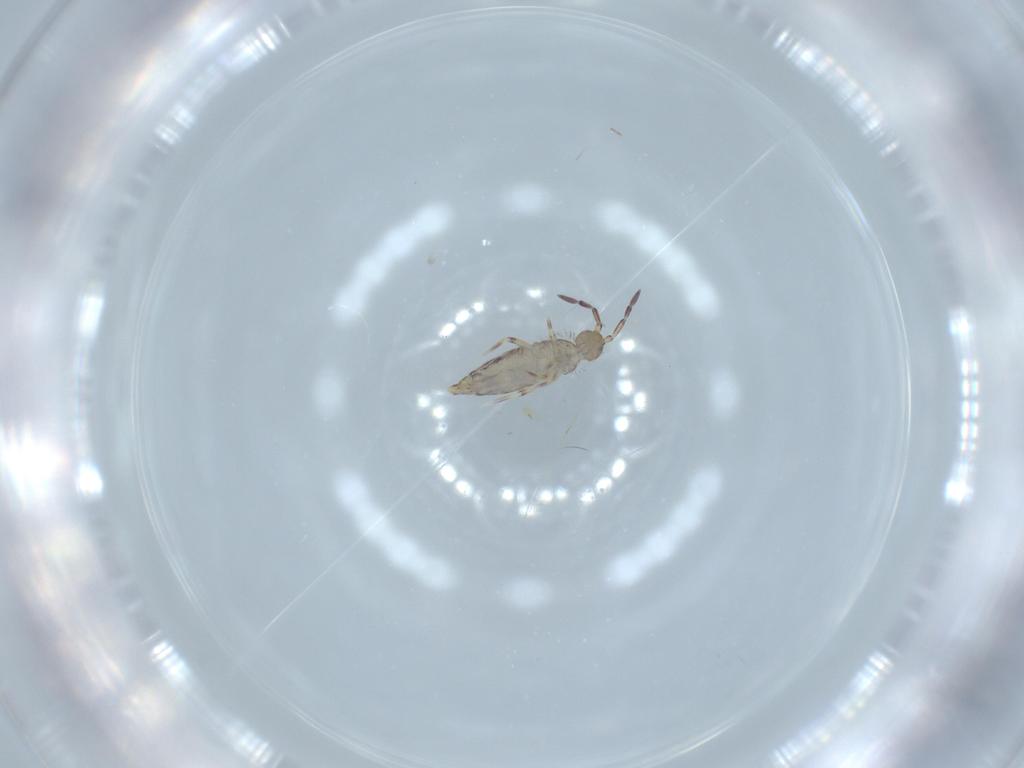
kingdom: Animalia
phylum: Arthropoda
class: Collembola
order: Entomobryomorpha
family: Entomobryidae
